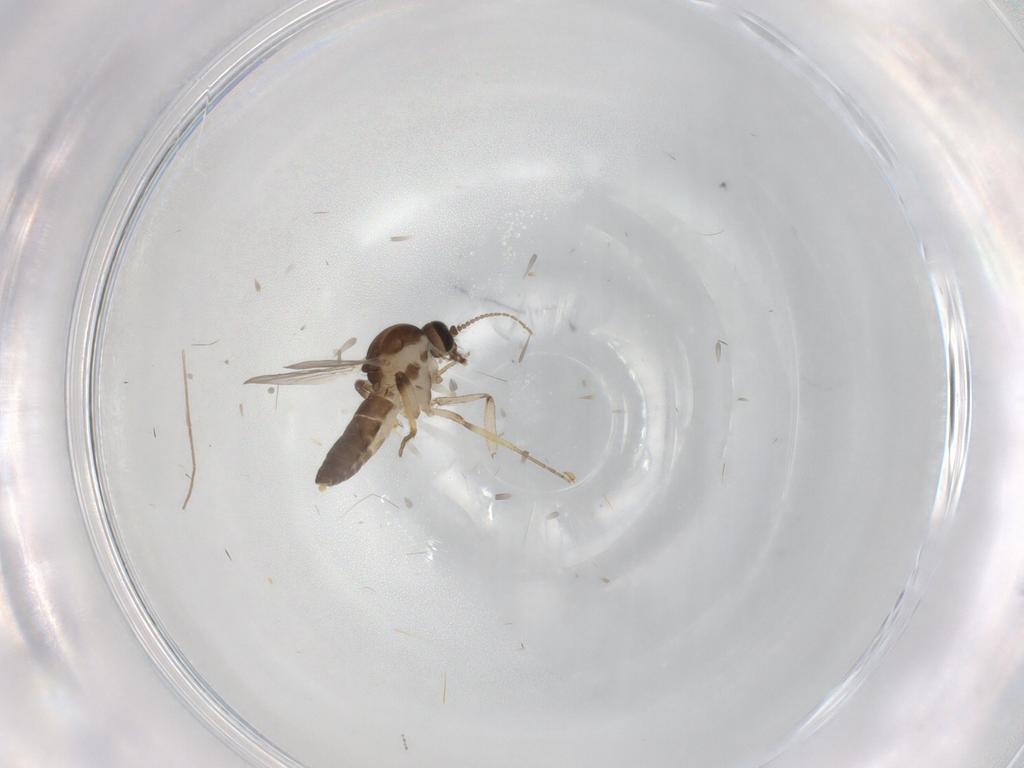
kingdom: Animalia
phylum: Arthropoda
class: Insecta
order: Diptera
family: Ceratopogonidae
